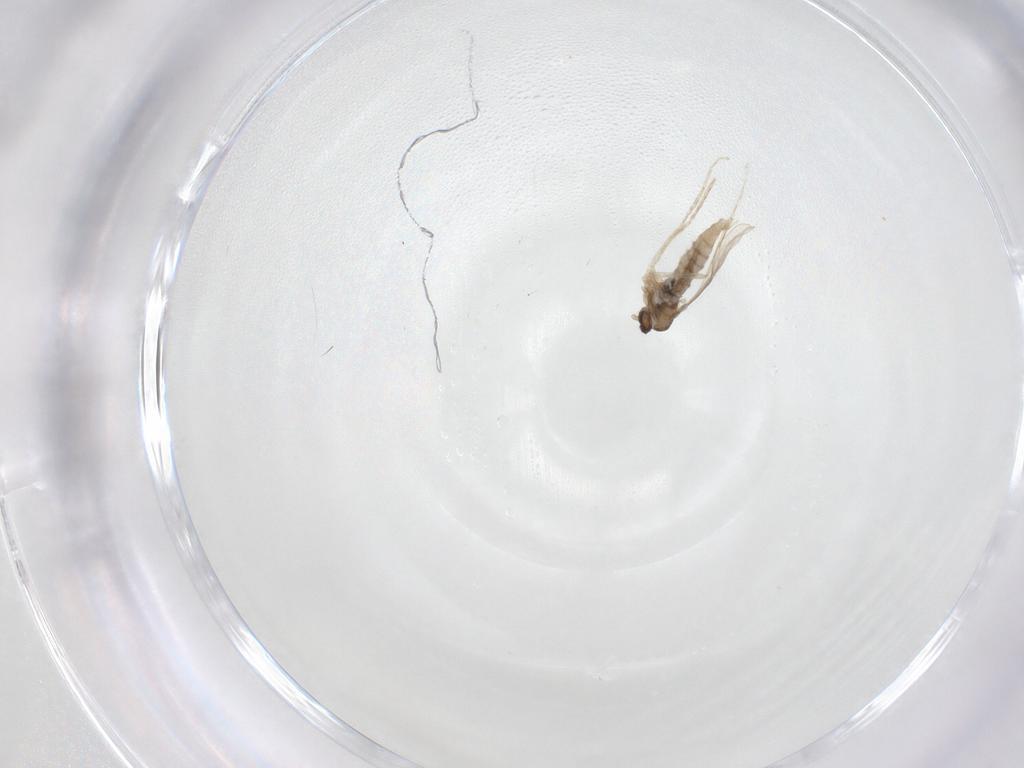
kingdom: Animalia
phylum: Arthropoda
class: Insecta
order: Diptera
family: Cecidomyiidae
